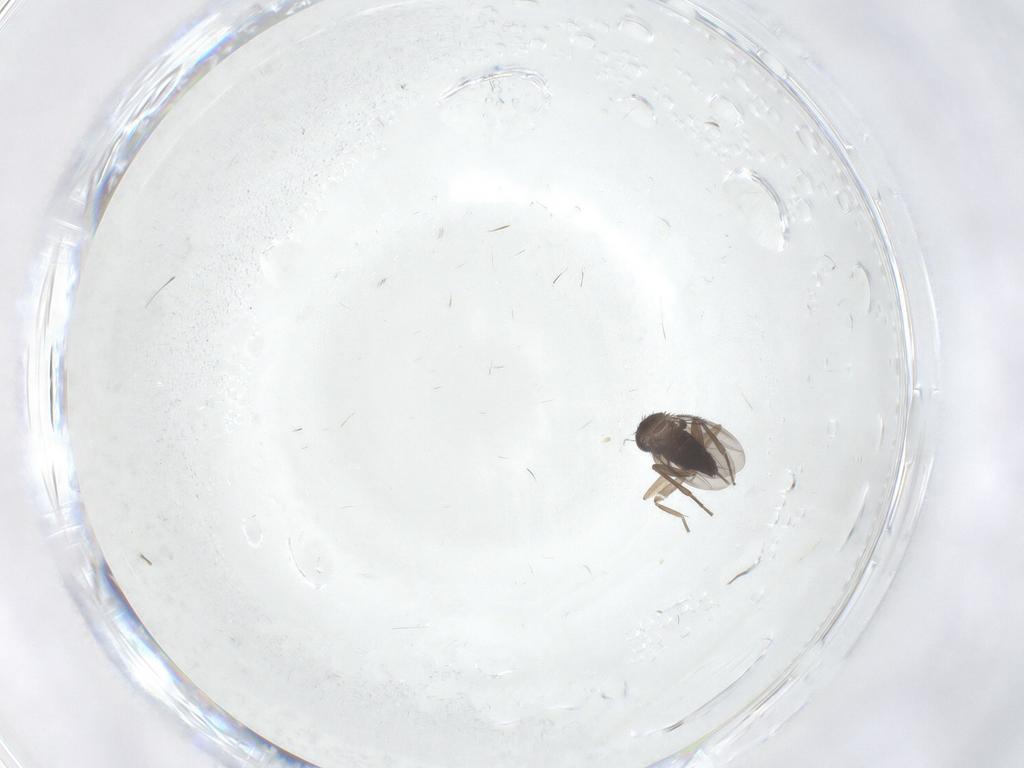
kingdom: Animalia
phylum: Arthropoda
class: Insecta
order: Diptera
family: Phoridae
